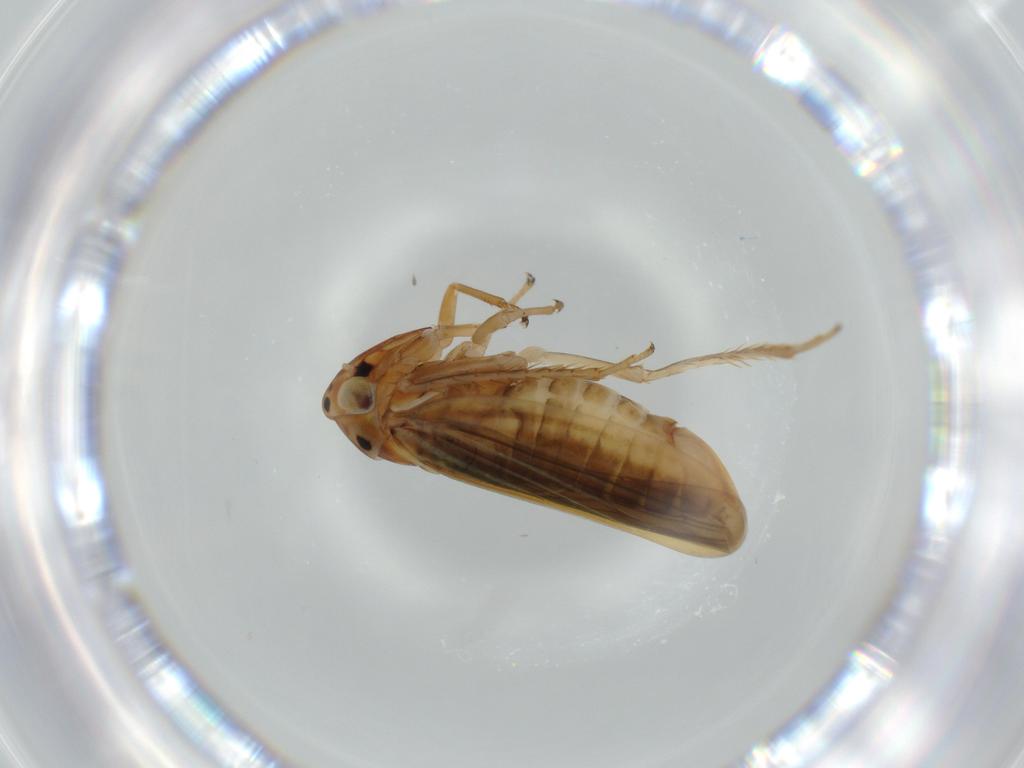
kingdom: Animalia
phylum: Arthropoda
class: Insecta
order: Hemiptera
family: Cicadellidae
